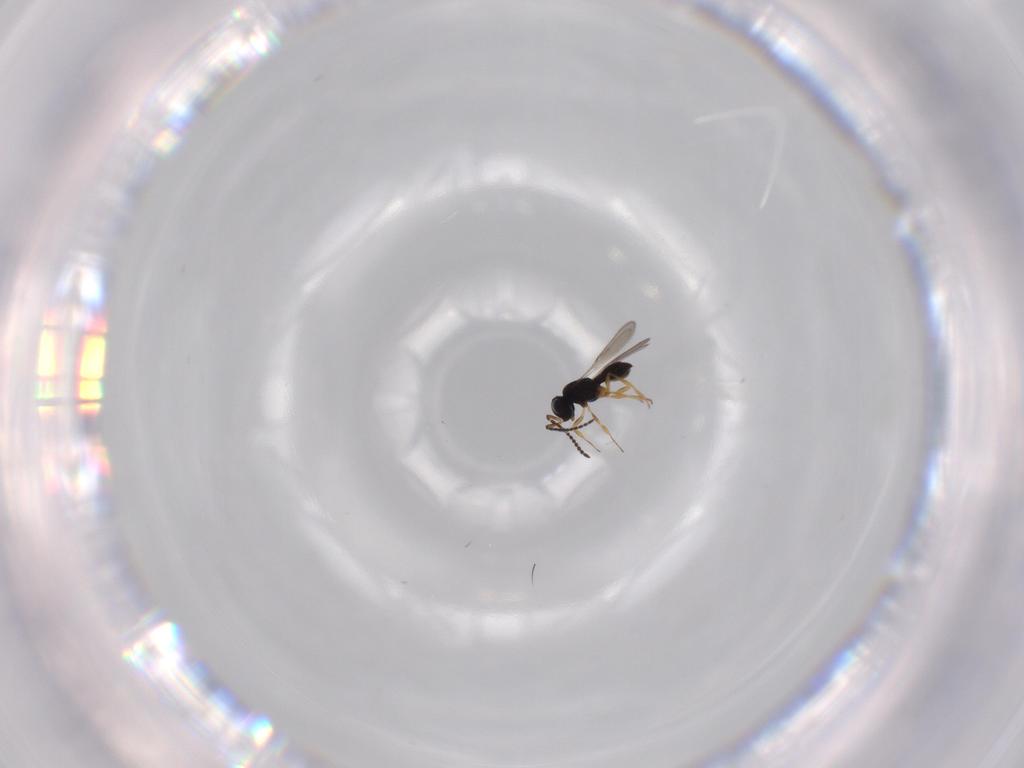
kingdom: Animalia
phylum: Arthropoda
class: Insecta
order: Hymenoptera
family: Scelionidae
